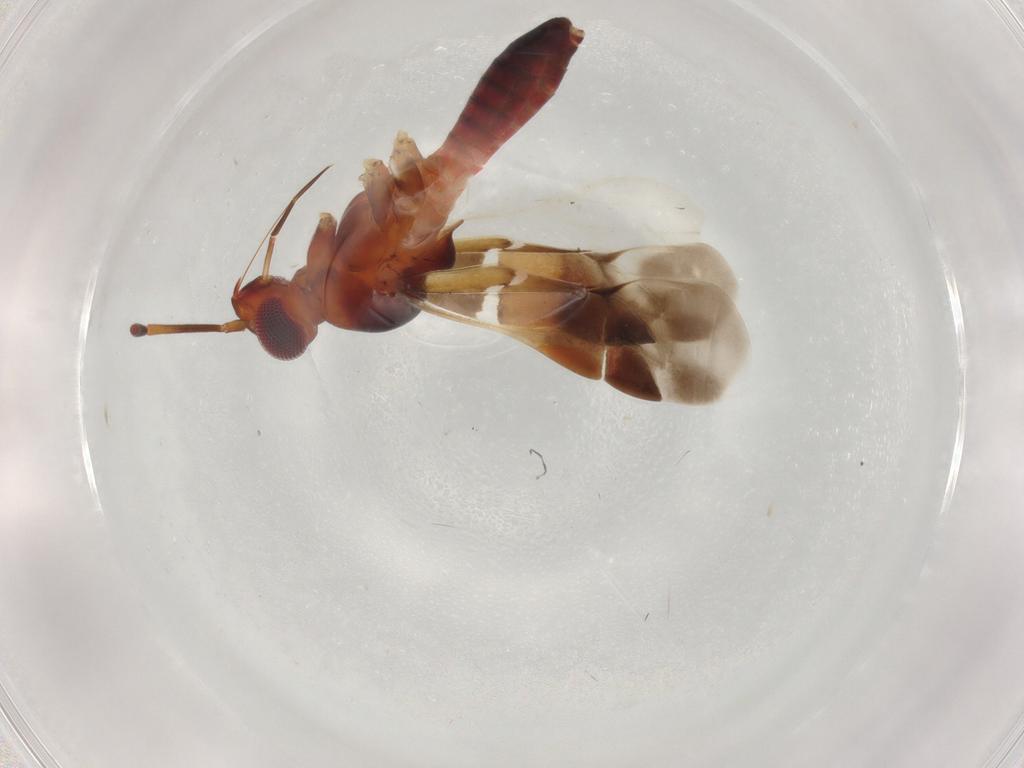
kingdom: Animalia
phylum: Arthropoda
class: Insecta
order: Hemiptera
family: Miridae
